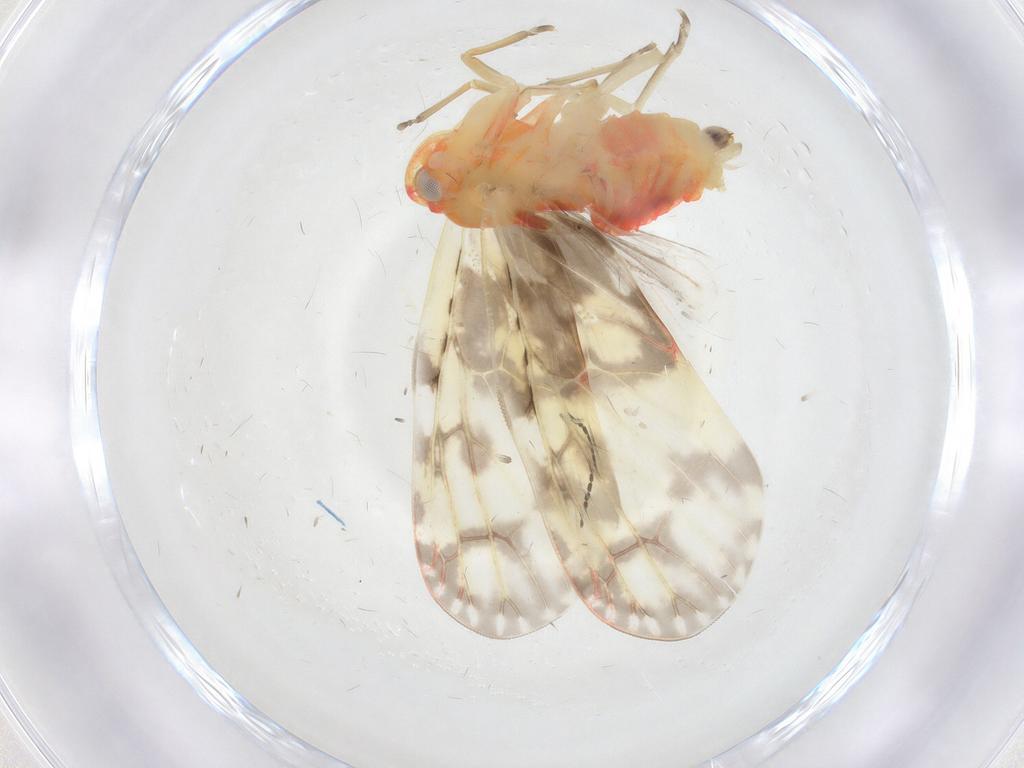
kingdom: Animalia
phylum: Arthropoda
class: Insecta
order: Hemiptera
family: Derbidae
